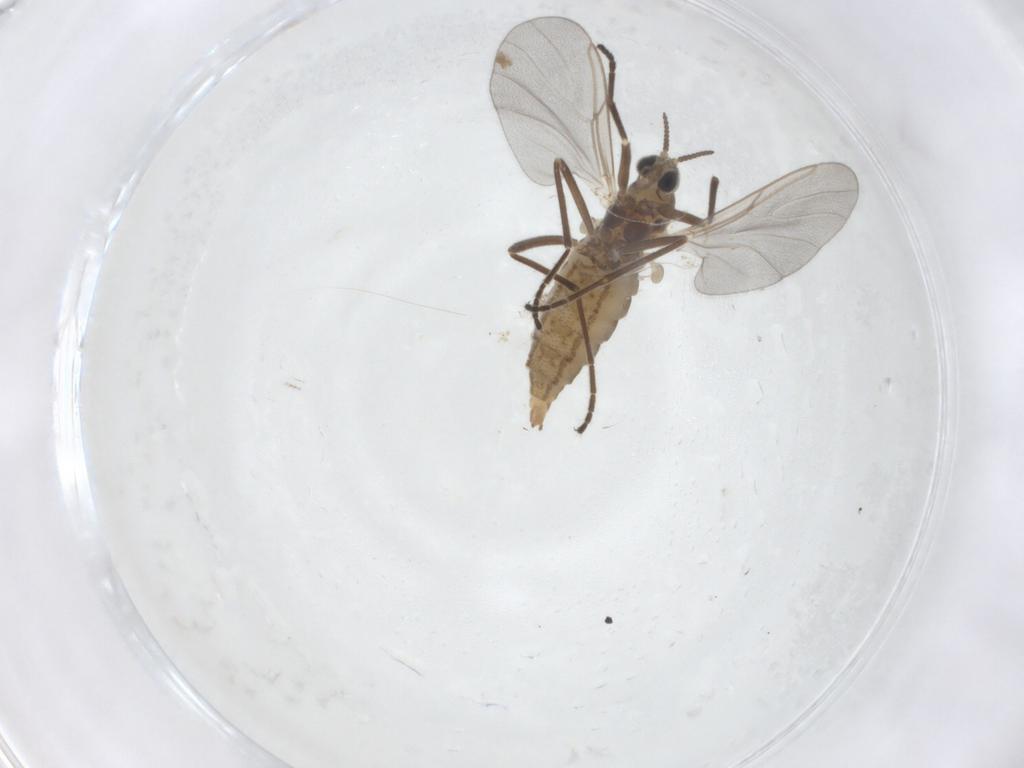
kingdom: Animalia
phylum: Arthropoda
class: Insecta
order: Diptera
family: Cecidomyiidae
